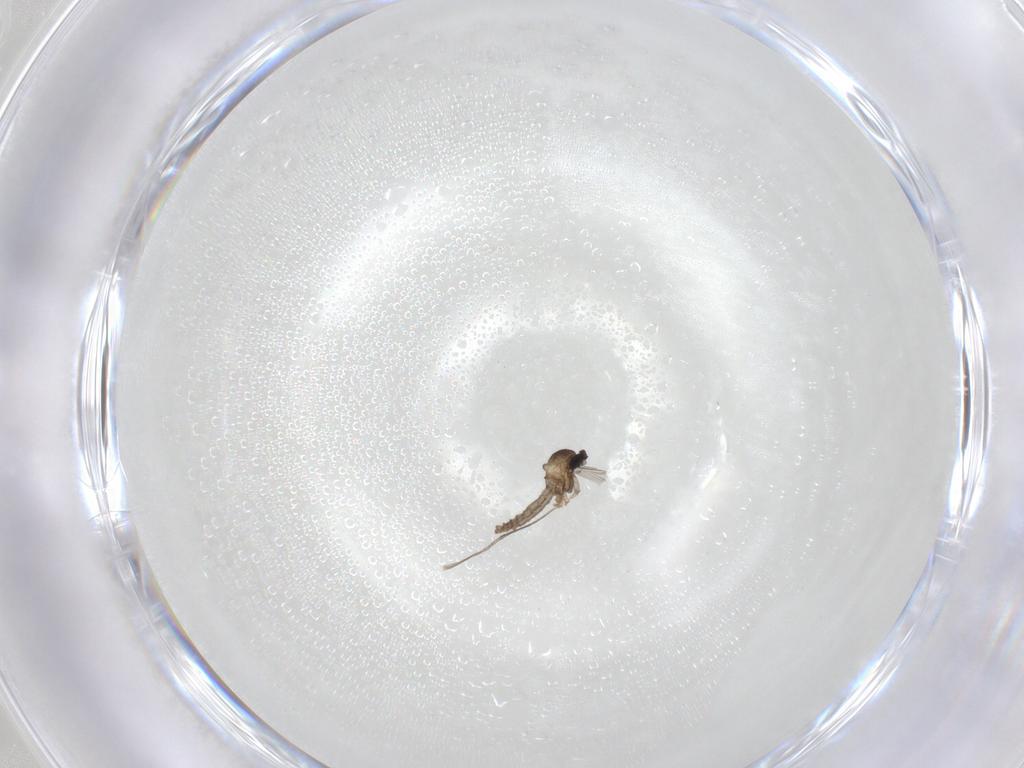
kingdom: Animalia
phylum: Arthropoda
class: Insecta
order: Diptera
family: Cecidomyiidae
